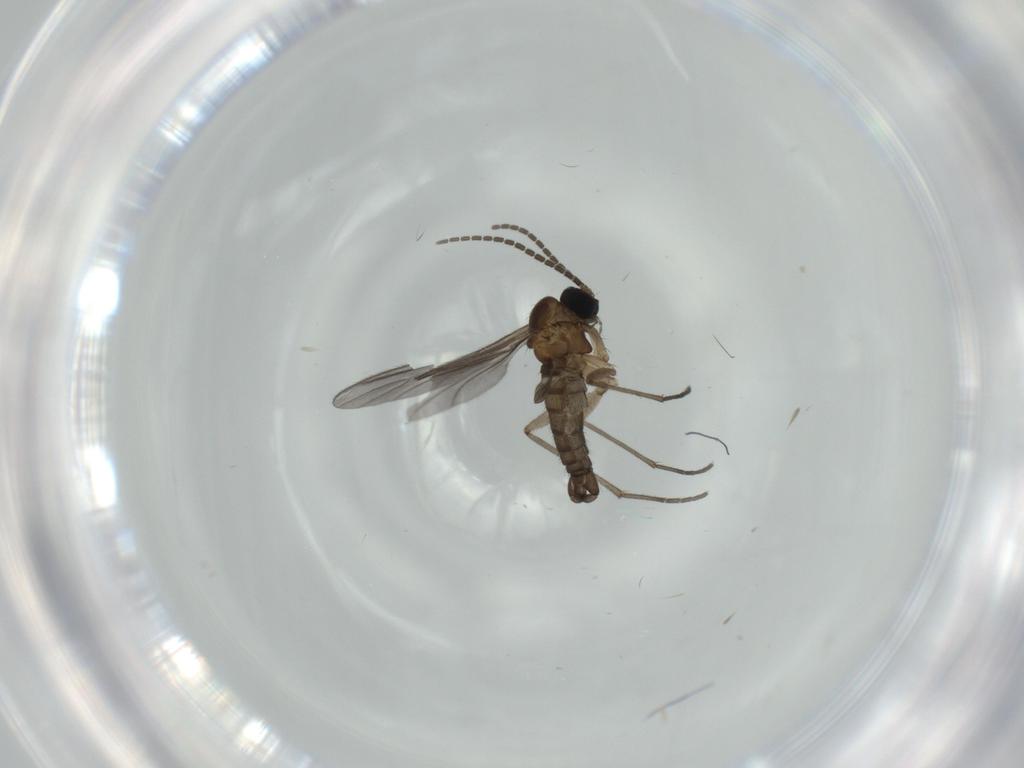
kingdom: Animalia
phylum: Arthropoda
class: Insecta
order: Diptera
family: Sciaridae
